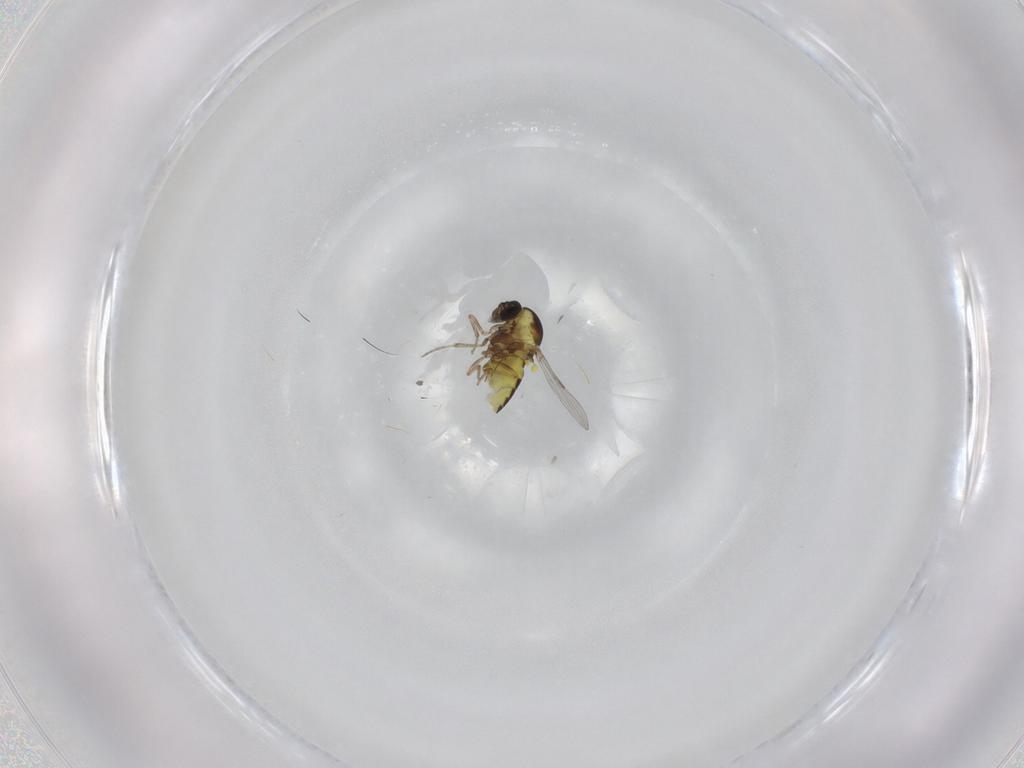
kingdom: Animalia
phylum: Arthropoda
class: Insecta
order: Diptera
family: Ceratopogonidae
